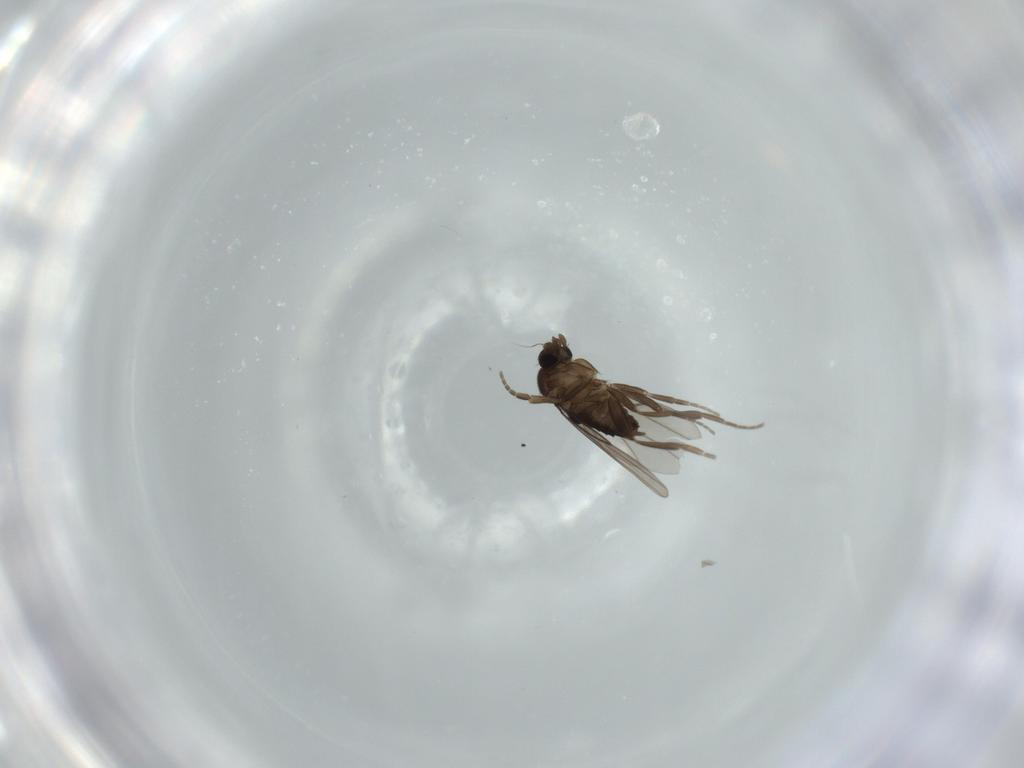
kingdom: Animalia
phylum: Arthropoda
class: Insecta
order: Diptera
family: Phoridae
